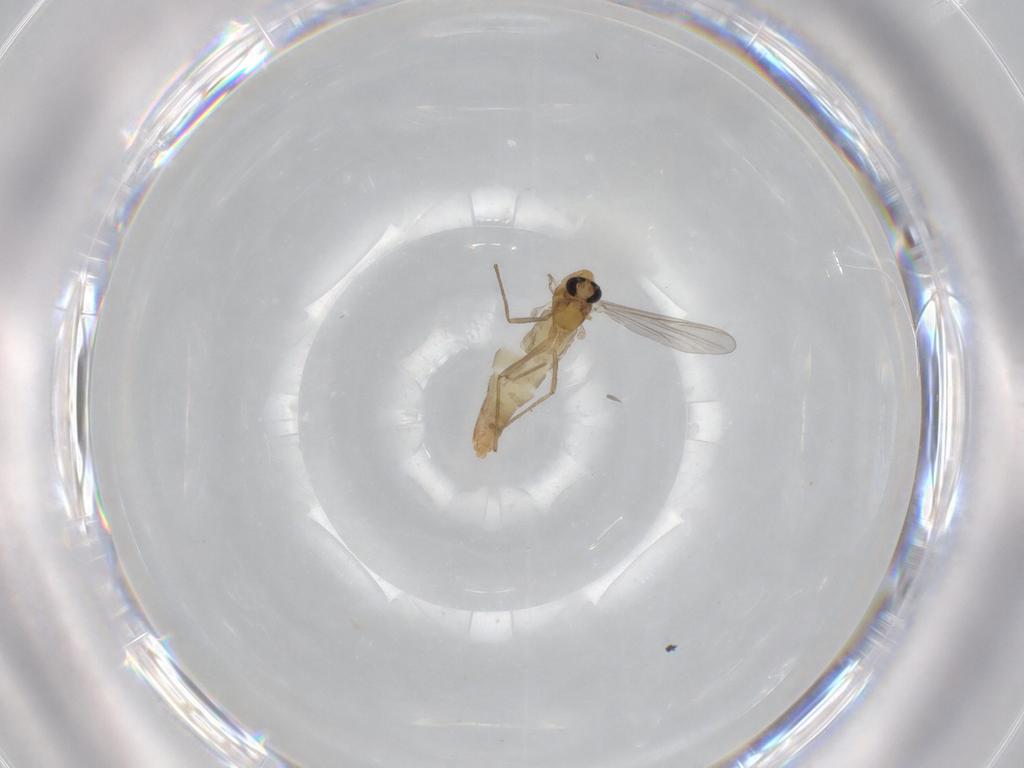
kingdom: Animalia
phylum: Arthropoda
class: Insecta
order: Diptera
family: Chironomidae
